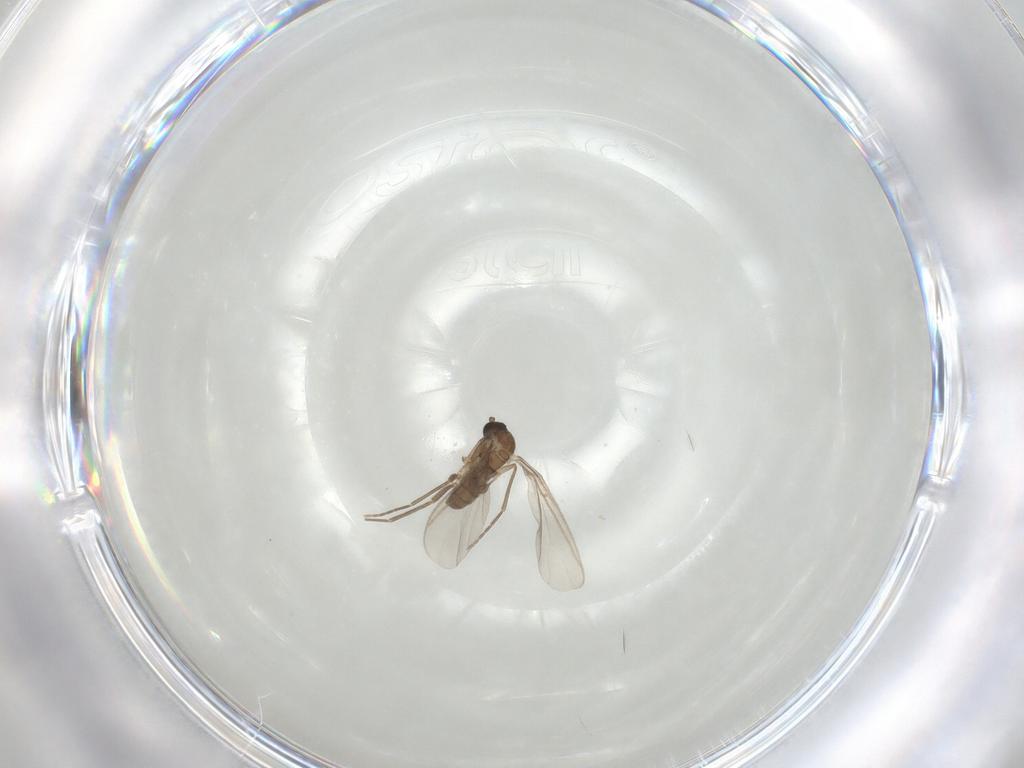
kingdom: Animalia
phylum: Arthropoda
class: Insecta
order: Diptera
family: Sciaridae
